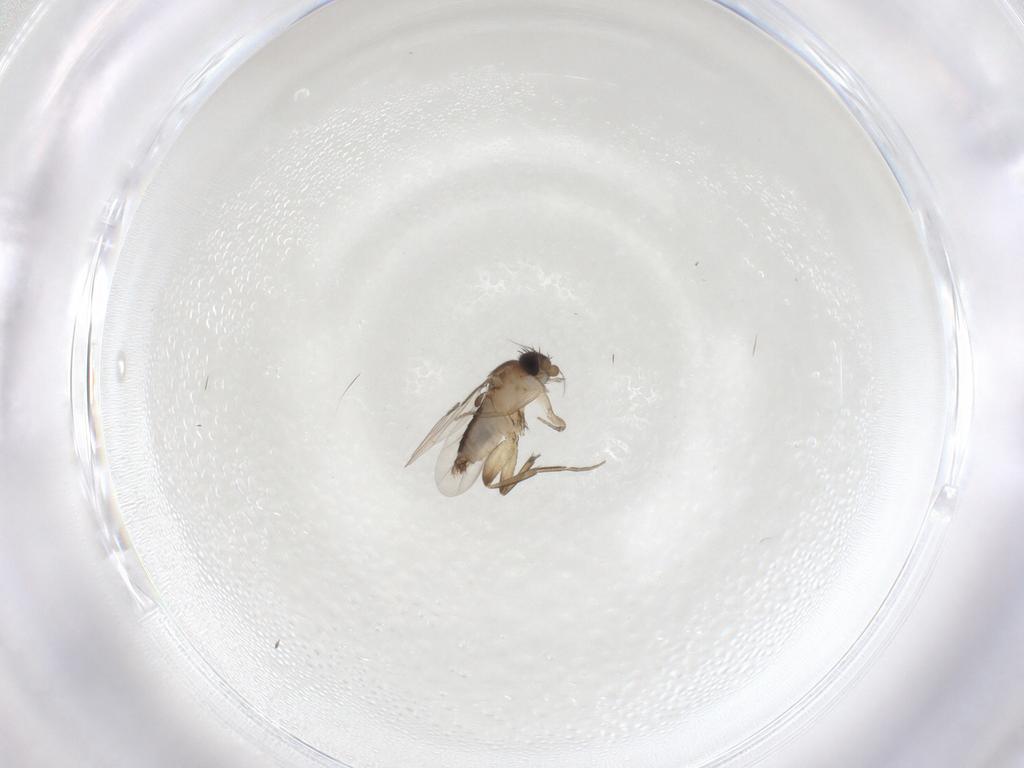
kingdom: Animalia
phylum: Arthropoda
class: Insecta
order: Diptera
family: Phoridae
